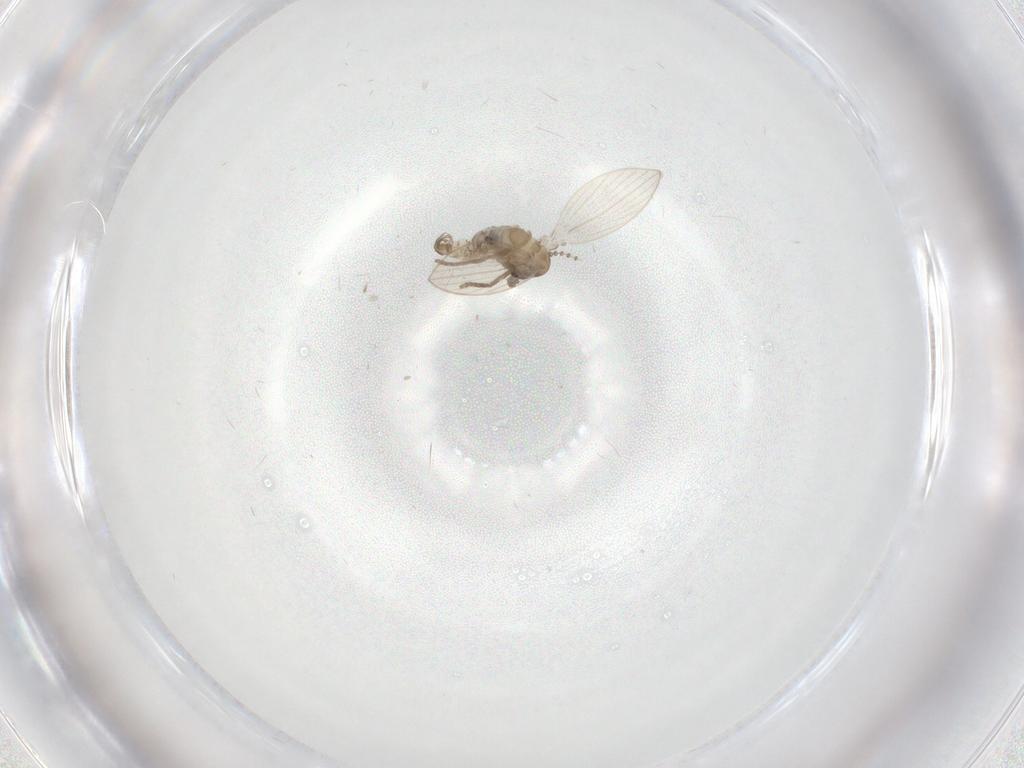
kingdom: Animalia
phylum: Arthropoda
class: Insecta
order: Diptera
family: Psychodidae
